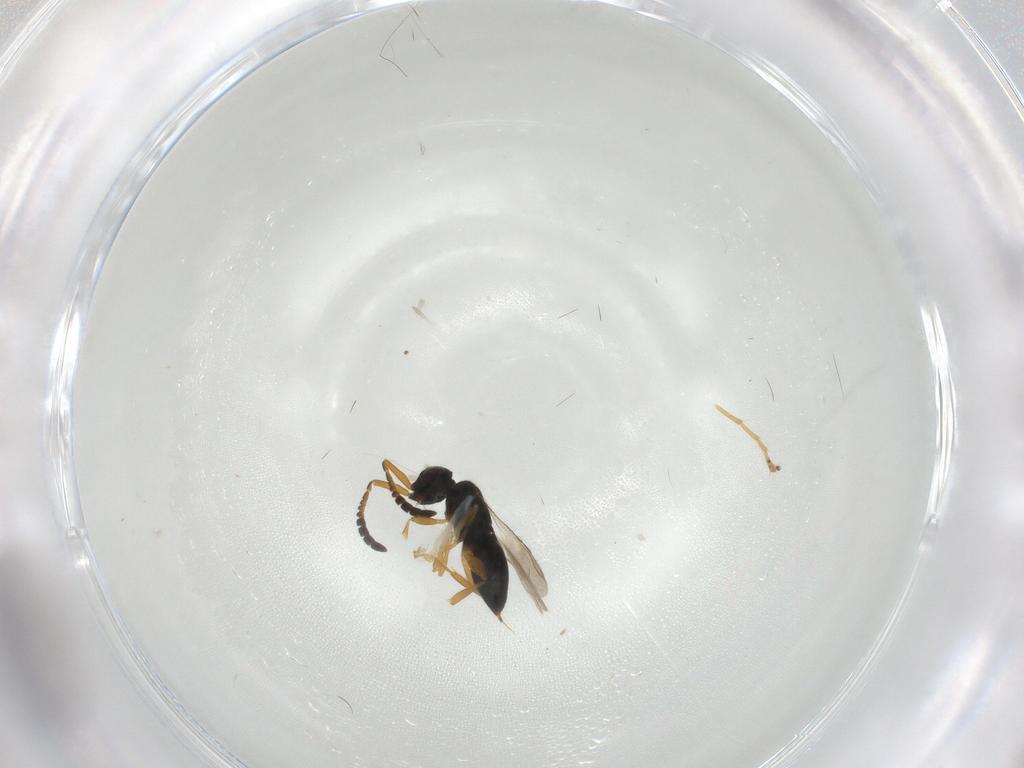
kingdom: Animalia
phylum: Arthropoda
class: Insecta
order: Hymenoptera
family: Formicidae
